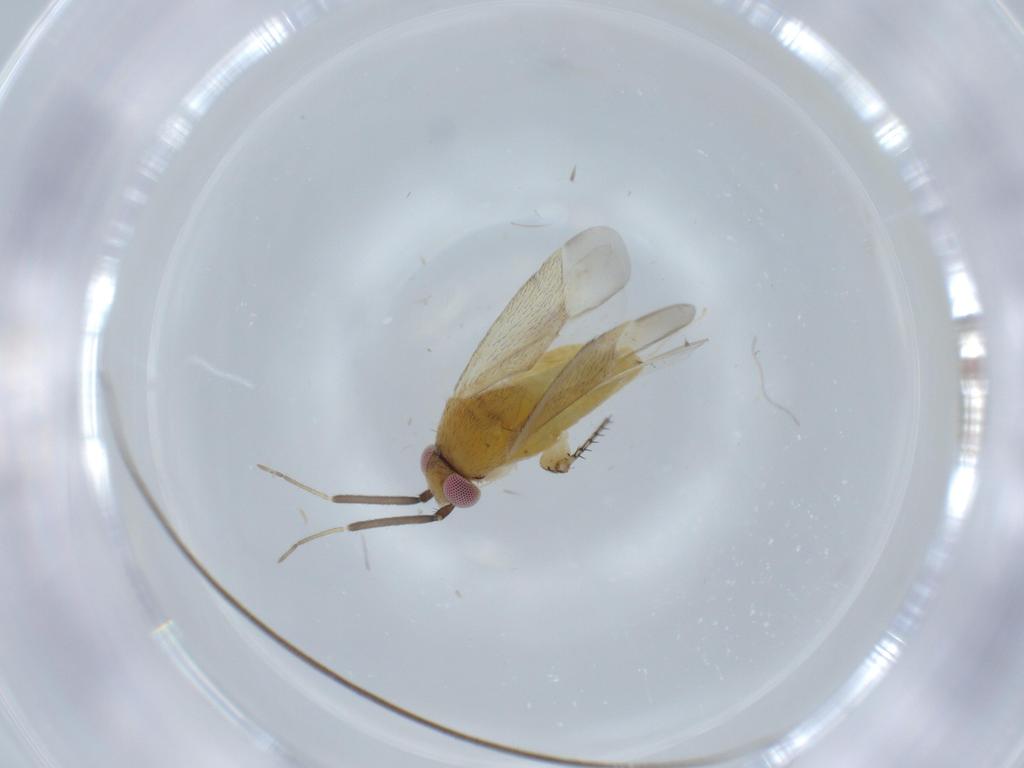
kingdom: Animalia
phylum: Arthropoda
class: Insecta
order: Hemiptera
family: Miridae
